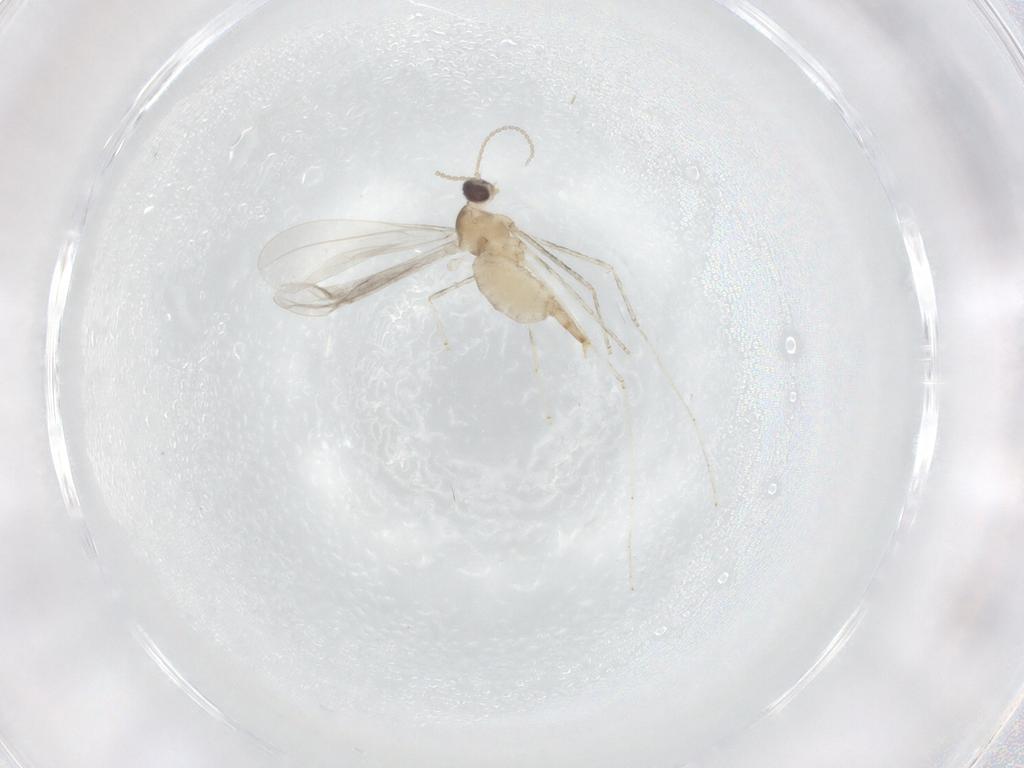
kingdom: Animalia
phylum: Arthropoda
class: Insecta
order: Diptera
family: Cecidomyiidae
